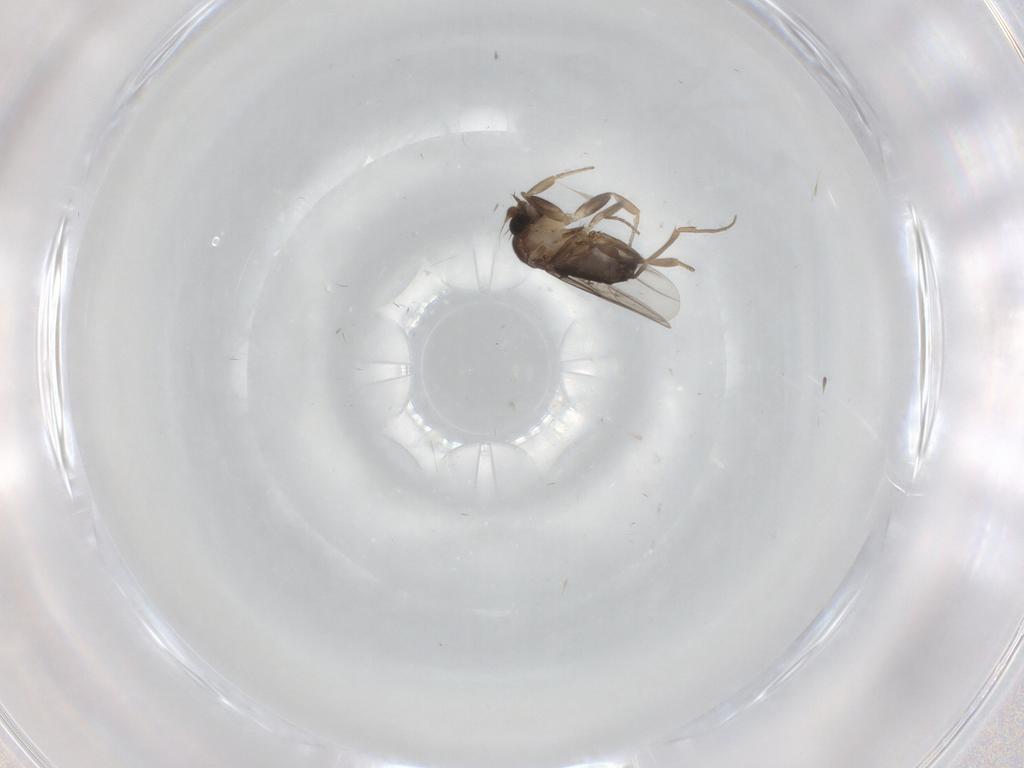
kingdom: Animalia
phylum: Arthropoda
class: Insecta
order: Diptera
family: Phoridae
